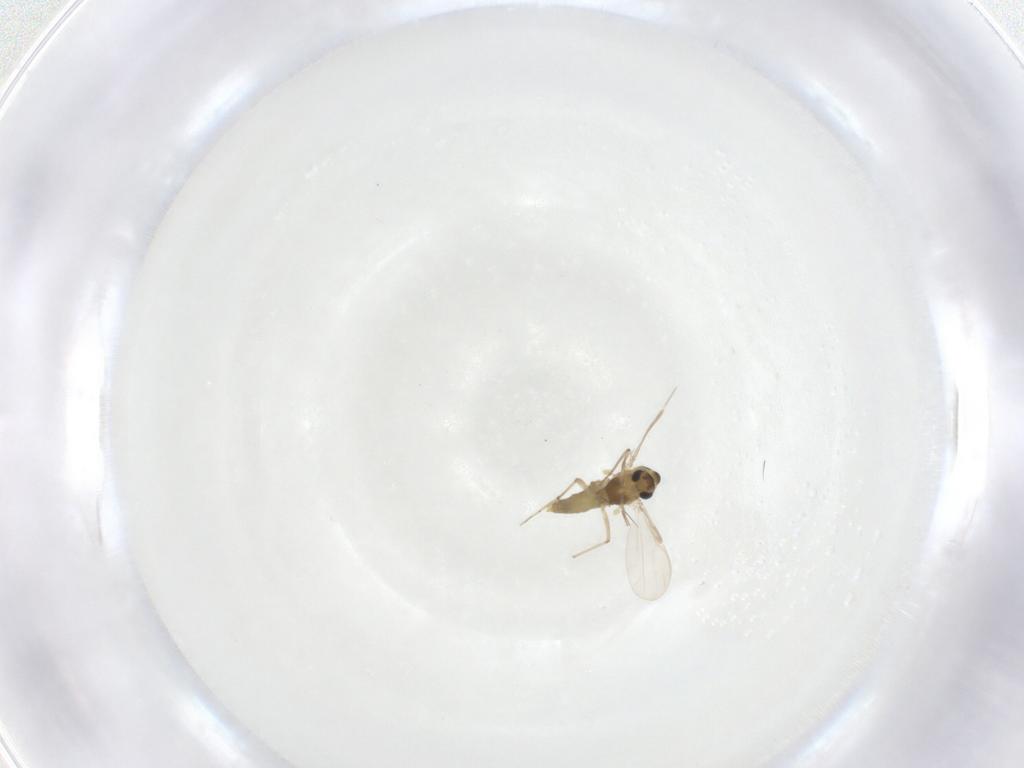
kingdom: Animalia
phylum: Arthropoda
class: Insecta
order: Diptera
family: Chironomidae
